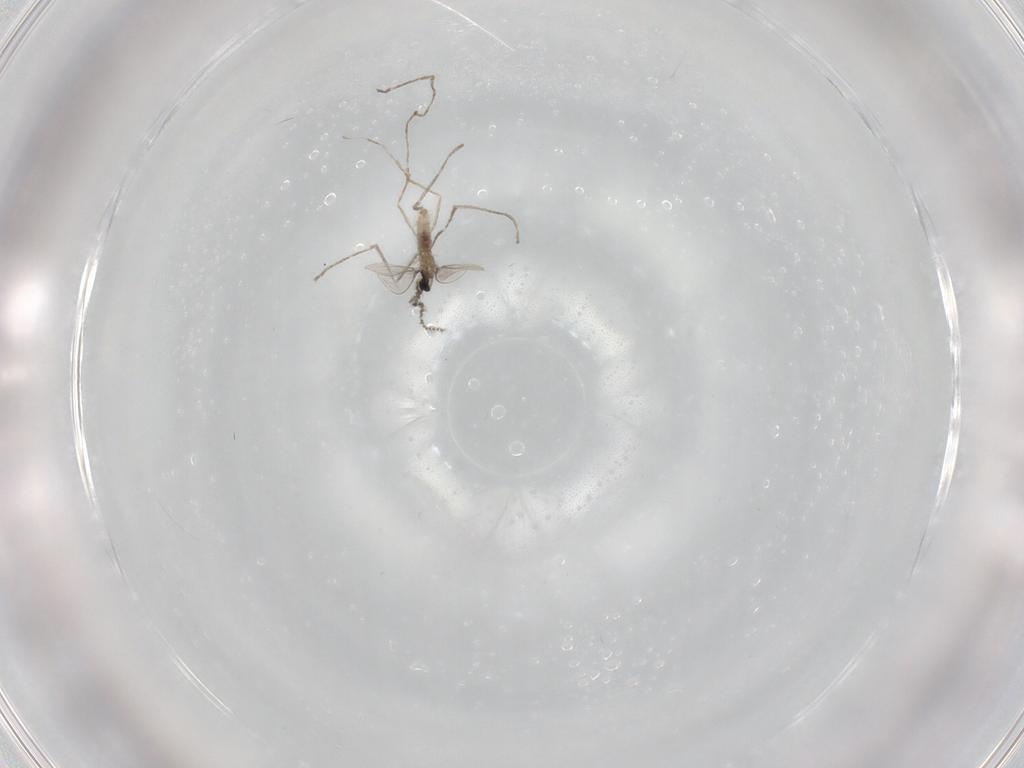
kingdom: Animalia
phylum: Arthropoda
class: Insecta
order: Diptera
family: Cecidomyiidae
